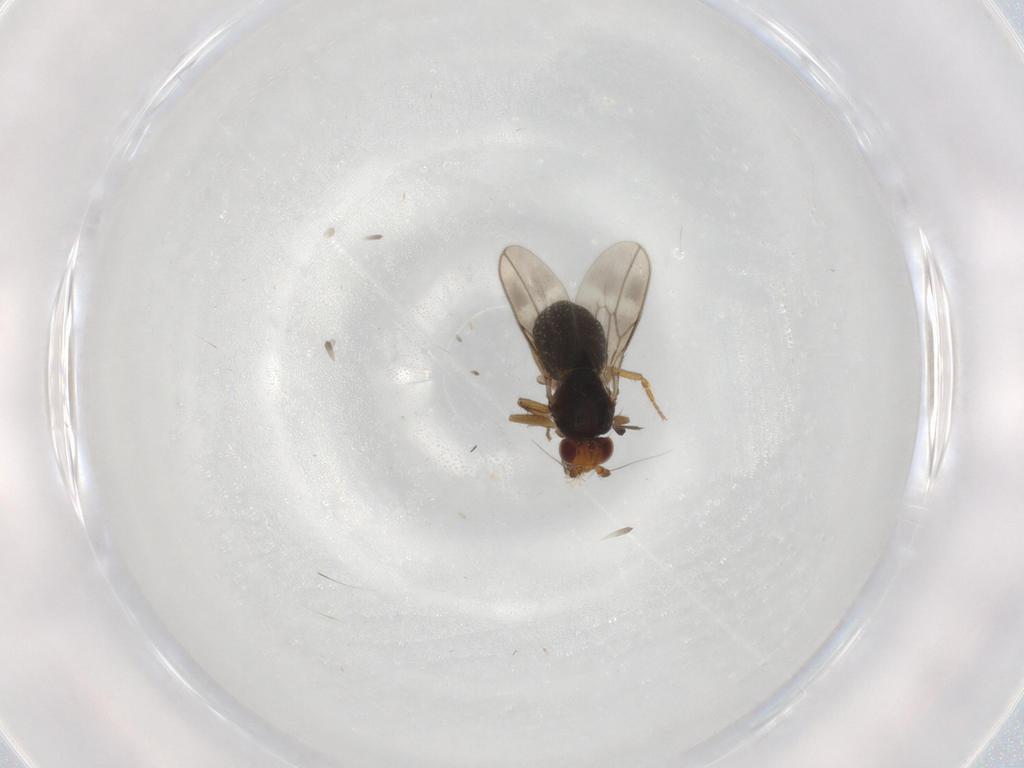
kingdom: Animalia
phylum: Arthropoda
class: Insecta
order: Diptera
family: Sphaeroceridae
